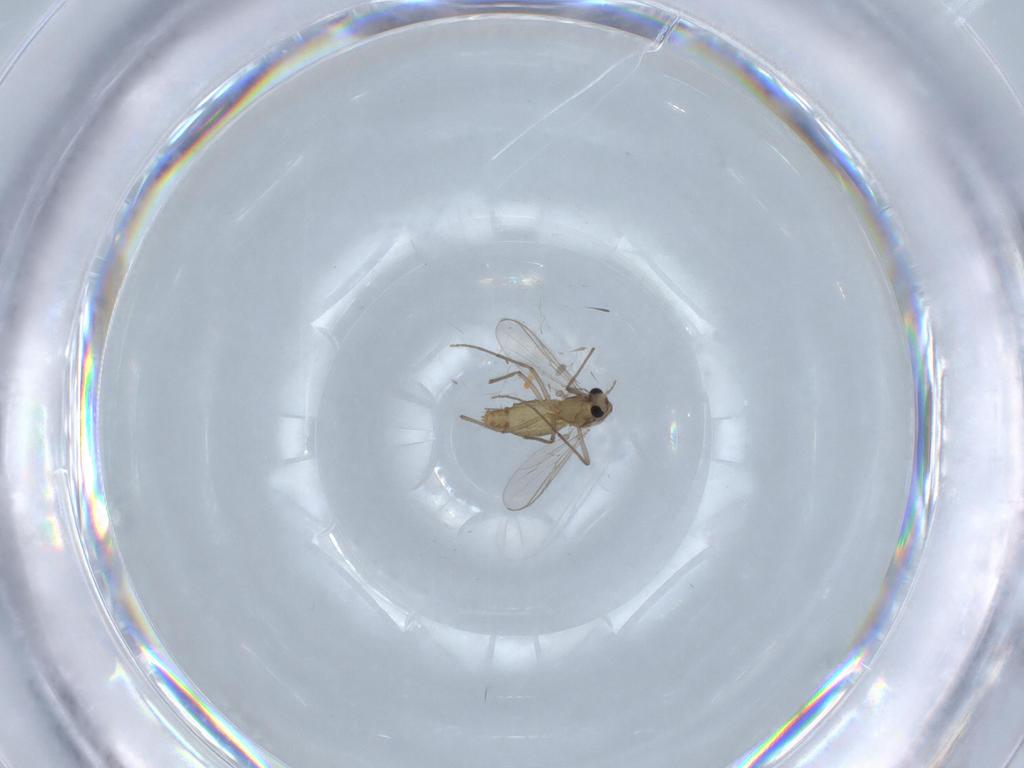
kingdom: Animalia
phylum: Arthropoda
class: Insecta
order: Diptera
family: Chironomidae
